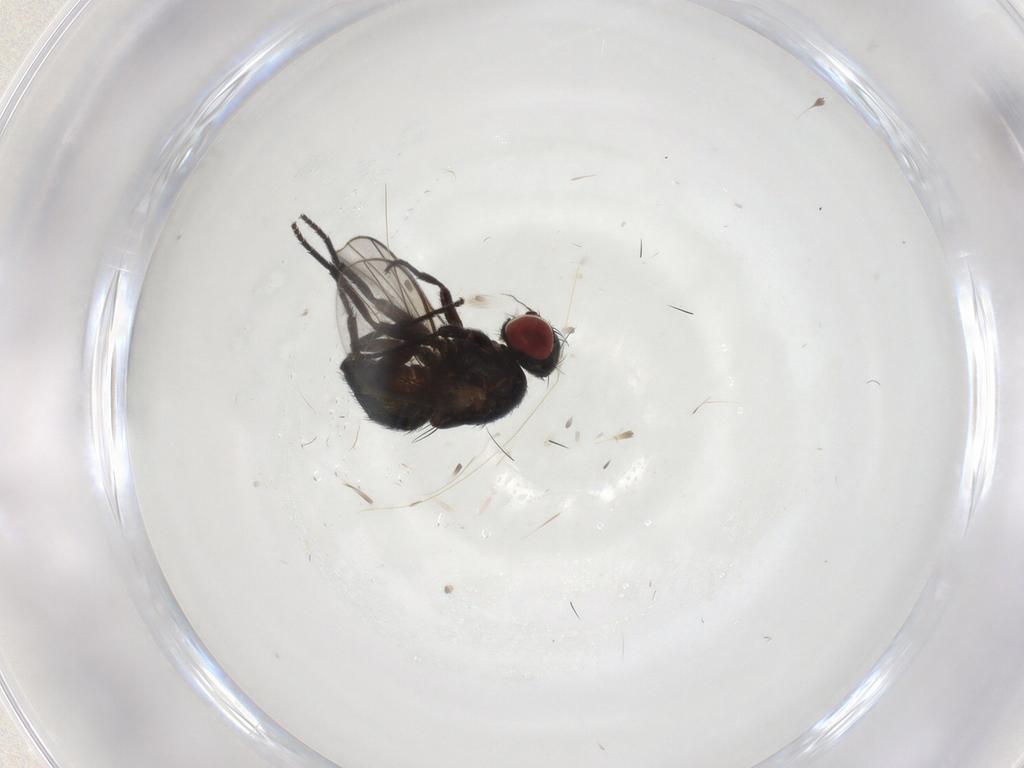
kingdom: Animalia
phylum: Arthropoda
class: Insecta
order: Diptera
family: Agromyzidae
